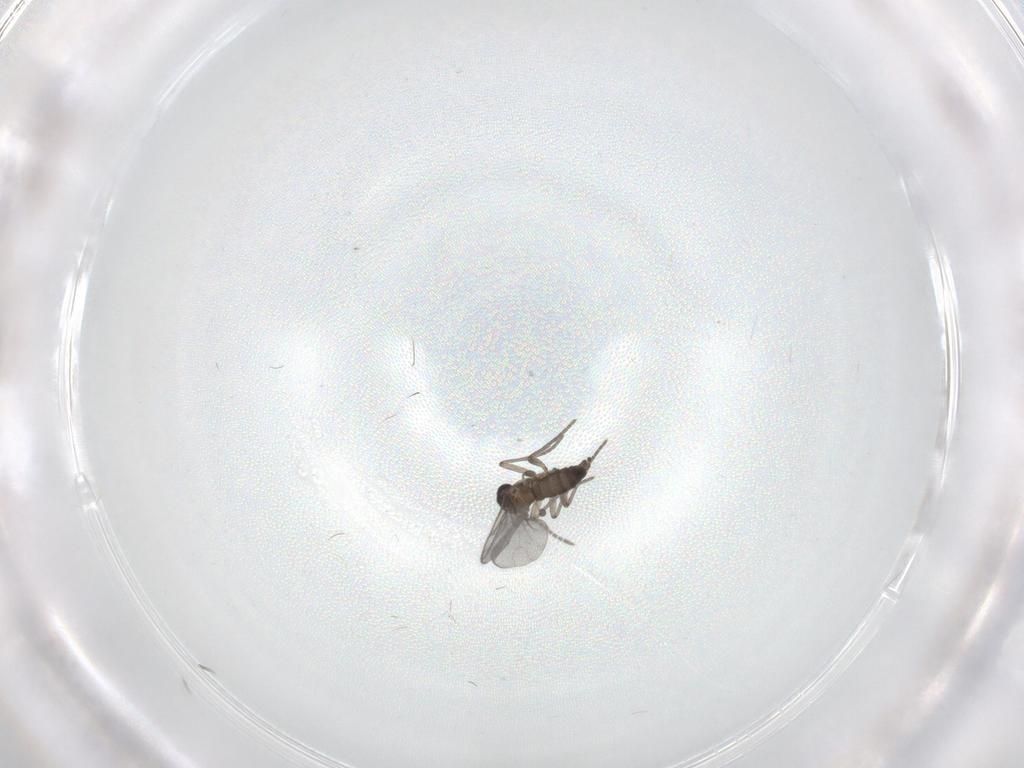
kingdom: Animalia
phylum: Arthropoda
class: Insecta
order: Diptera
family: Sciaridae
